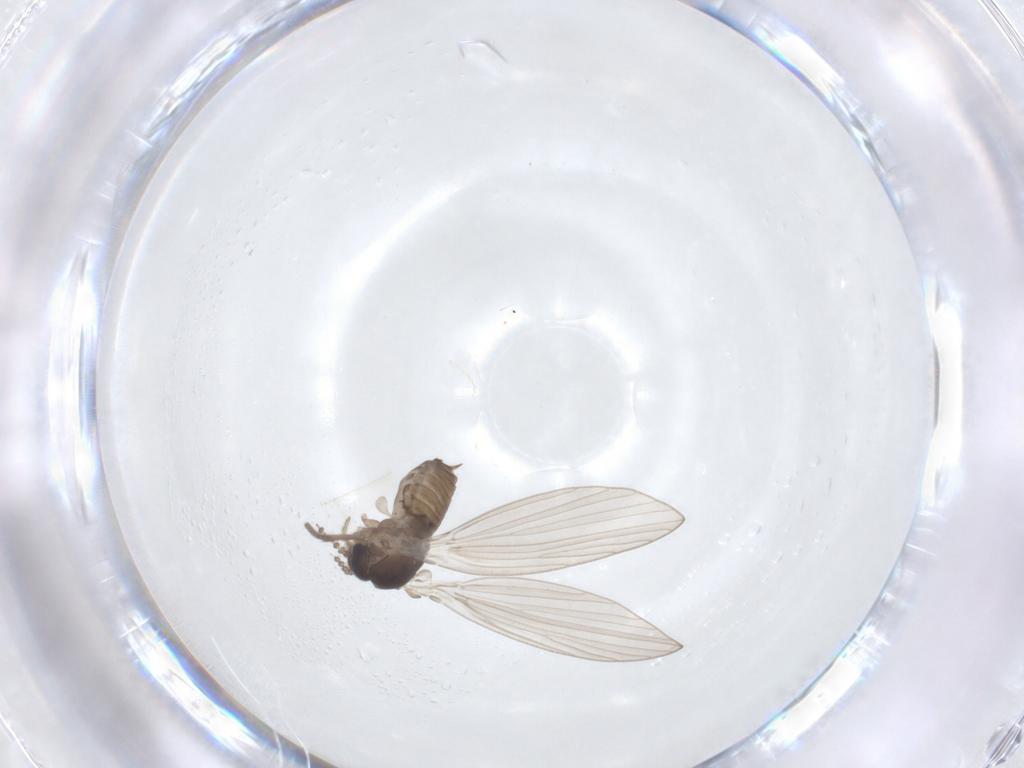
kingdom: Animalia
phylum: Arthropoda
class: Insecta
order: Diptera
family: Psychodidae
